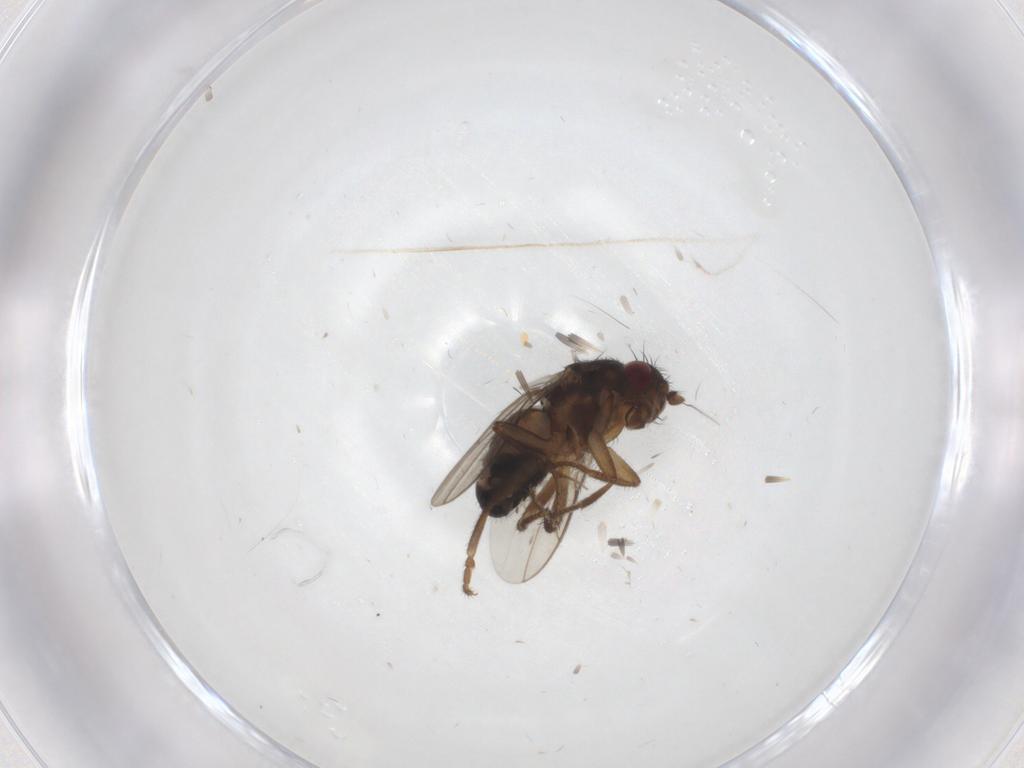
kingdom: Animalia
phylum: Arthropoda
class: Insecta
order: Diptera
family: Sphaeroceridae
